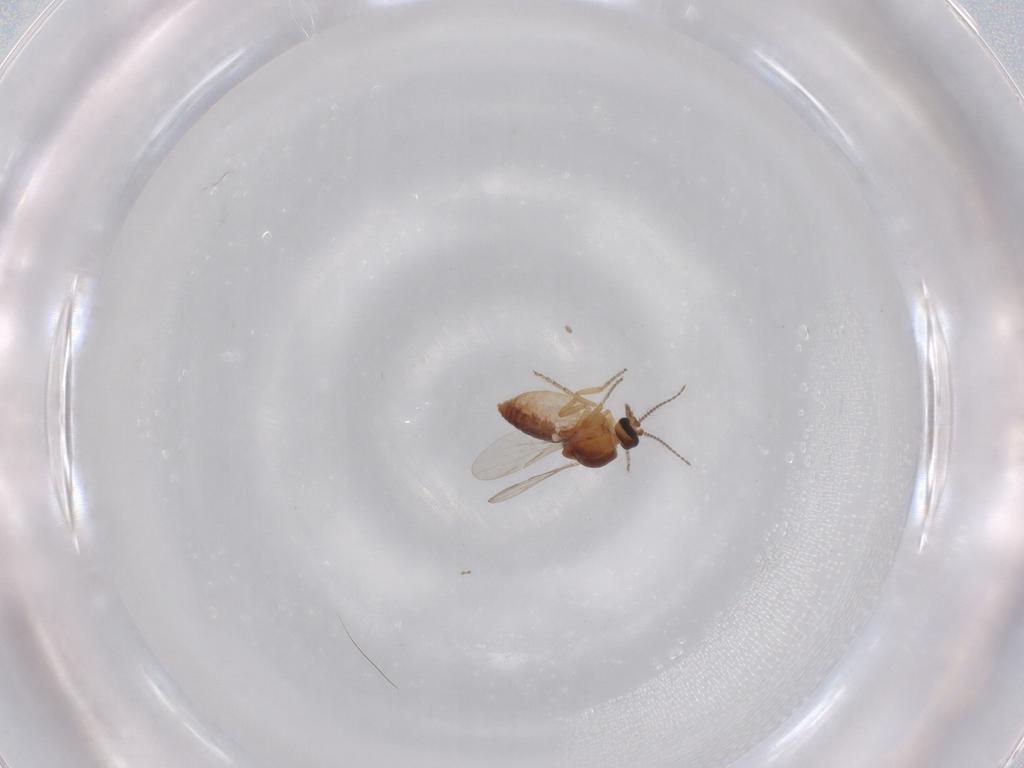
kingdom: Animalia
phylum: Arthropoda
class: Insecta
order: Diptera
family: Ceratopogonidae
